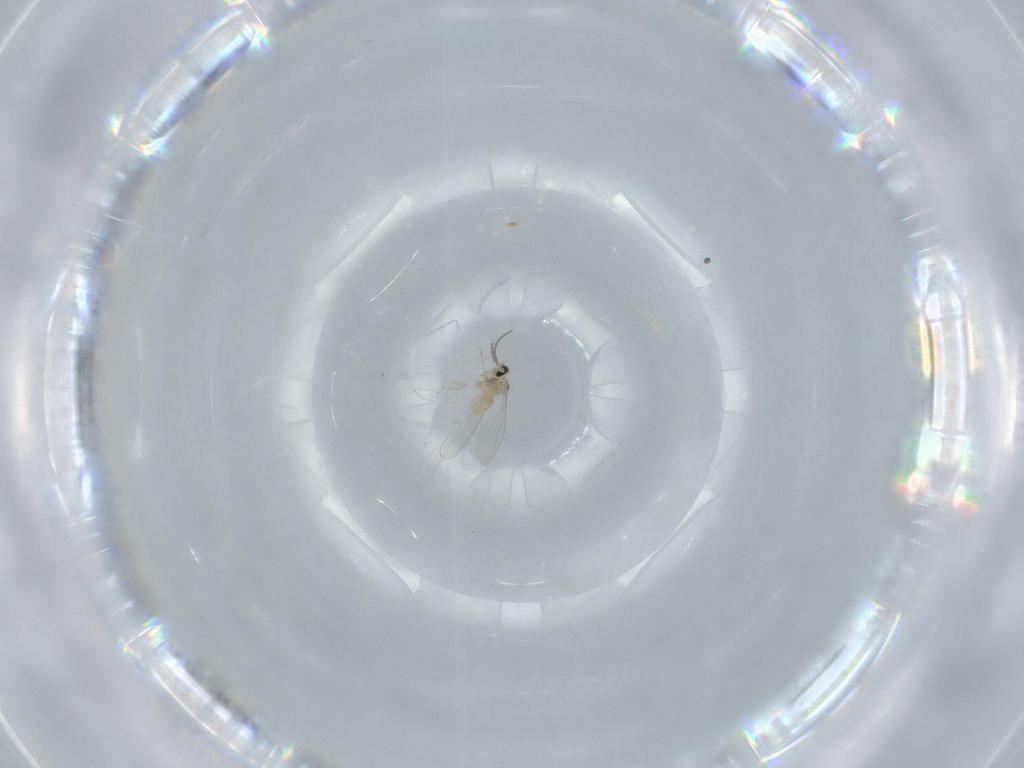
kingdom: Animalia
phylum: Arthropoda
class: Insecta
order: Diptera
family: Cecidomyiidae
